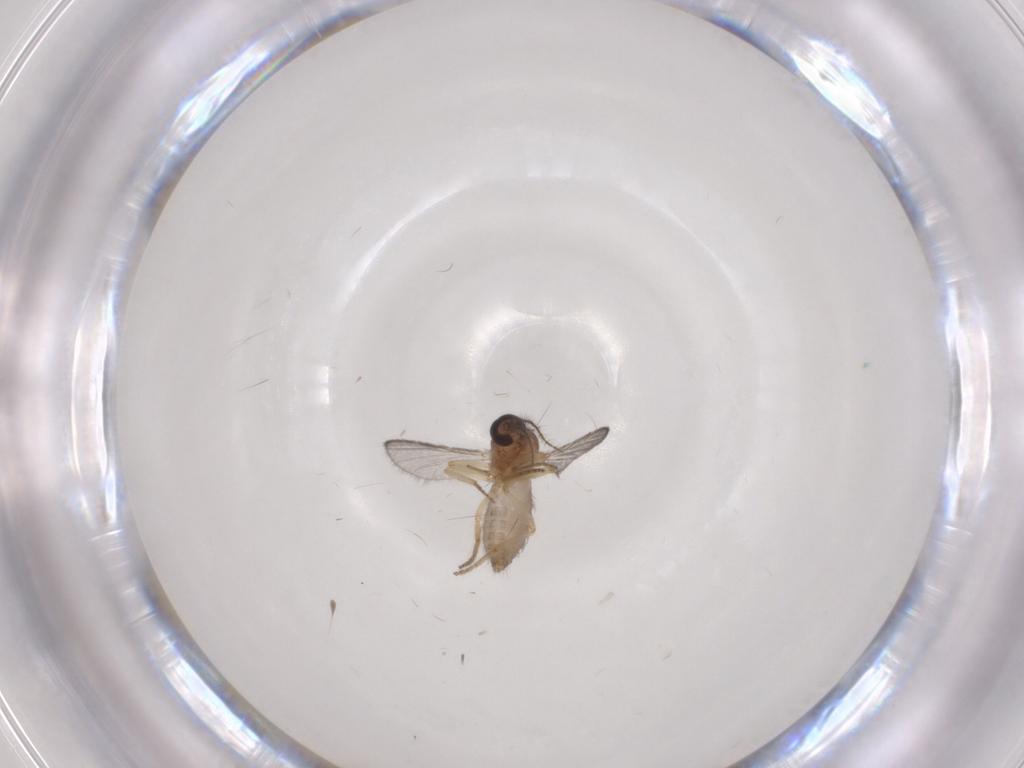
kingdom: Animalia
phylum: Arthropoda
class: Insecta
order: Diptera
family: Ceratopogonidae
